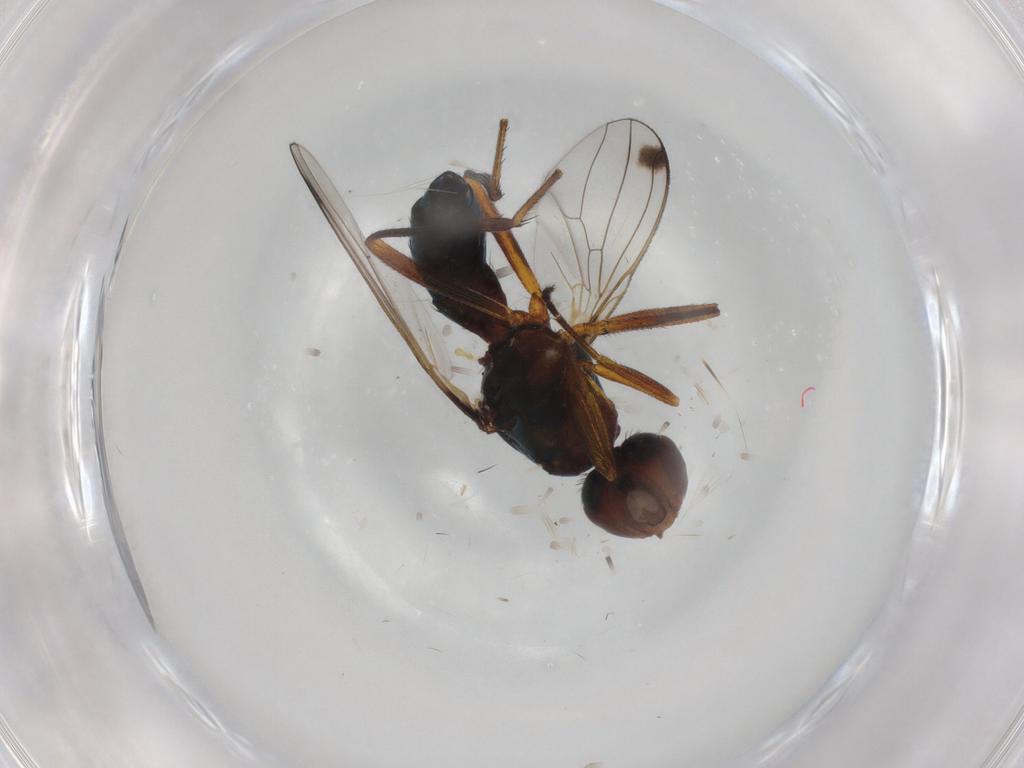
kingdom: Animalia
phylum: Arthropoda
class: Insecta
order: Diptera
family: Sepsidae
